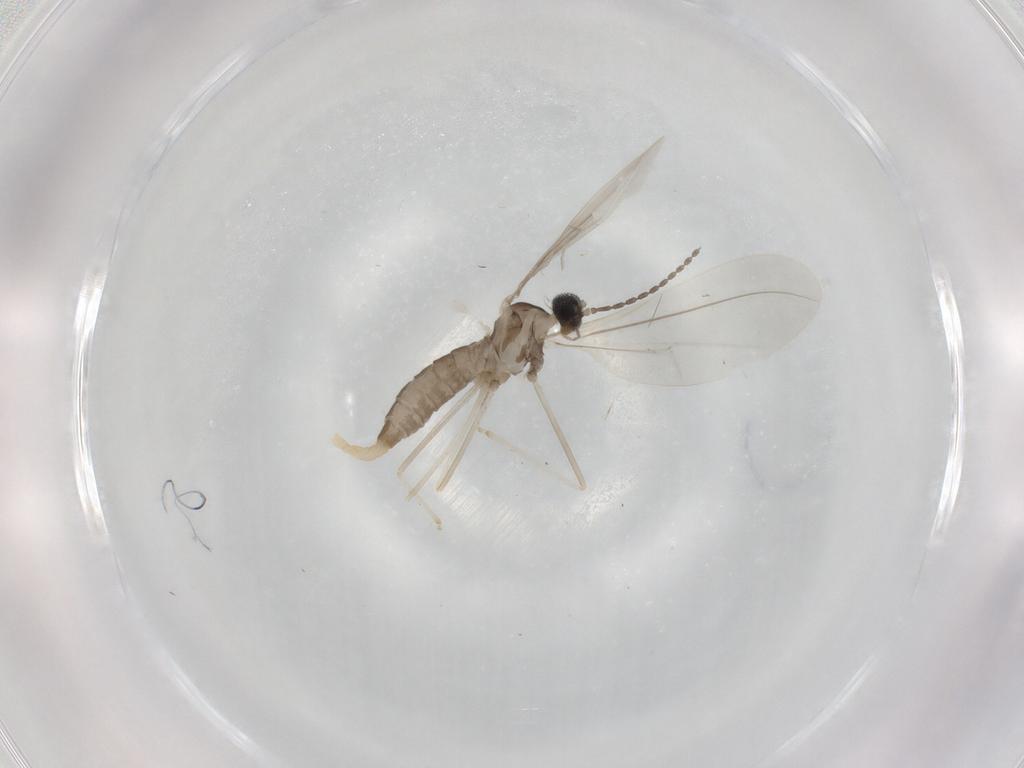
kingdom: Animalia
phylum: Arthropoda
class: Insecta
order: Diptera
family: Cecidomyiidae
